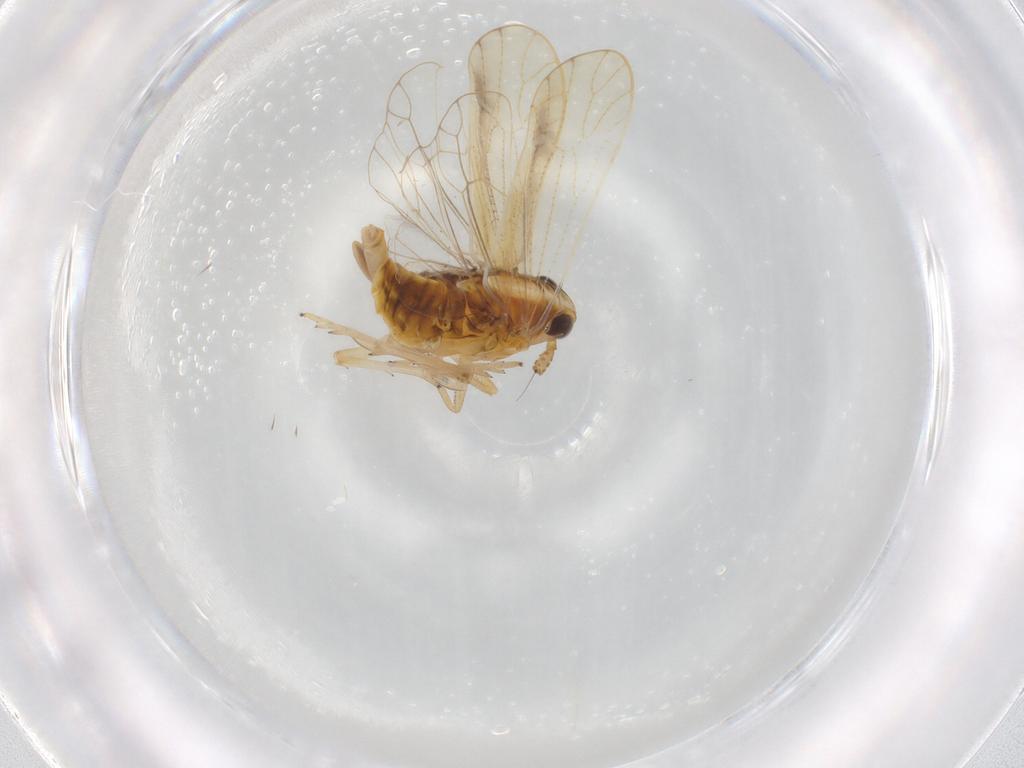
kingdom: Animalia
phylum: Arthropoda
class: Insecta
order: Hemiptera
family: Delphacidae
